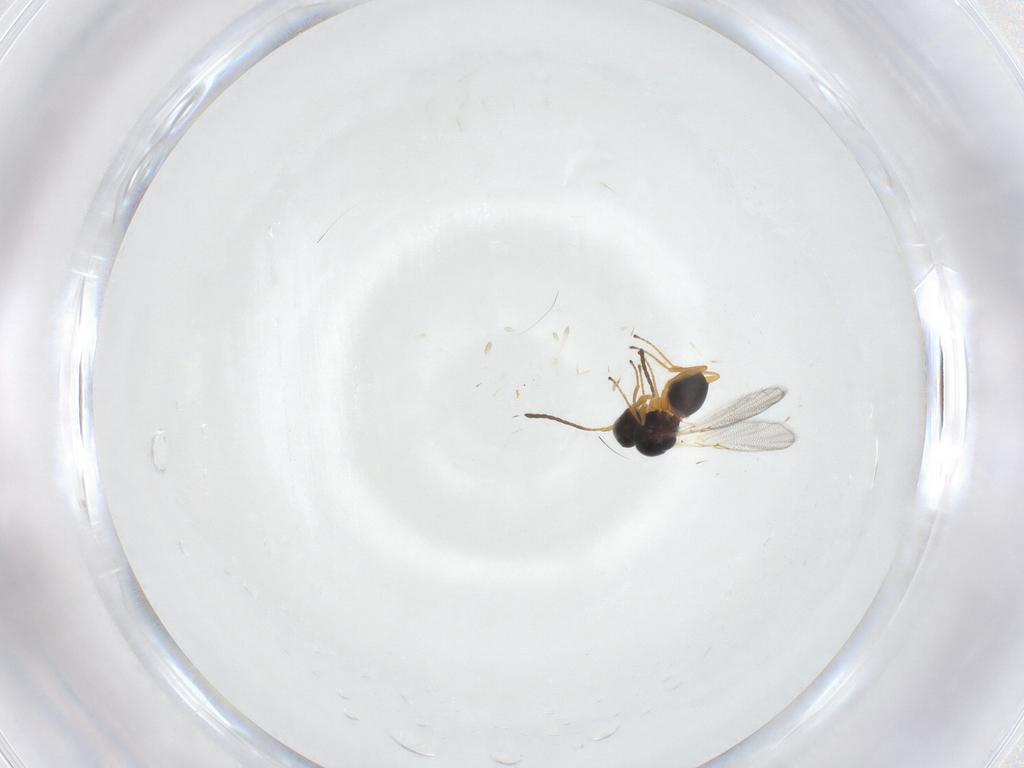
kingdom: Animalia
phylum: Arthropoda
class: Insecta
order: Hymenoptera
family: Figitidae
